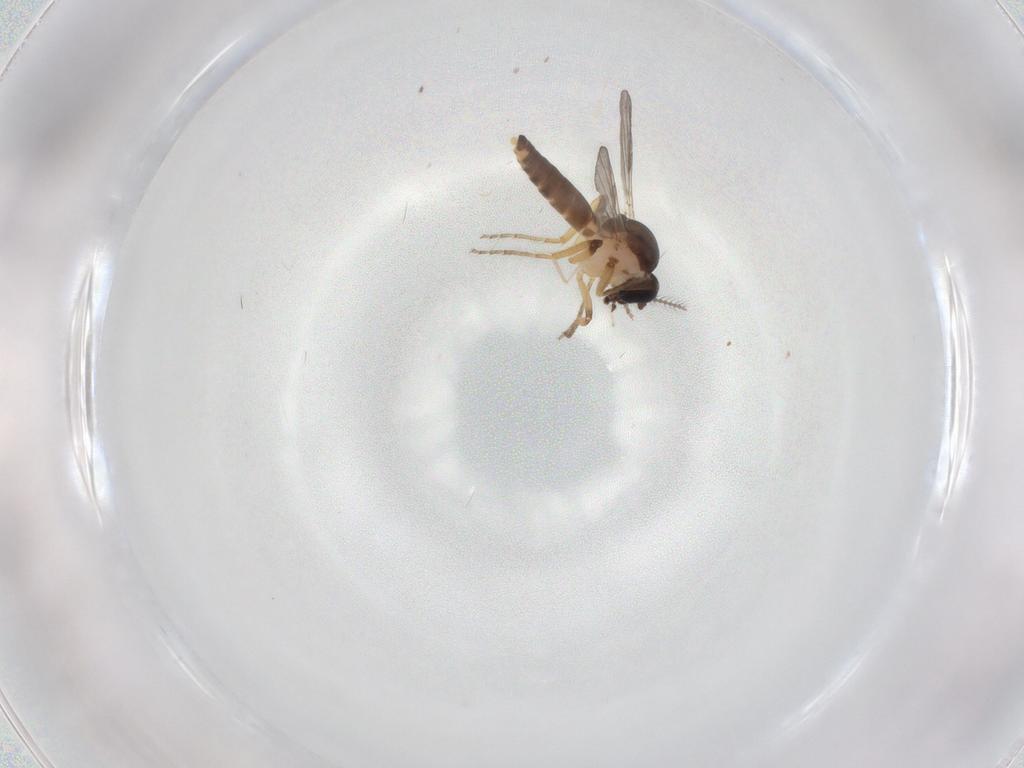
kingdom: Animalia
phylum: Arthropoda
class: Insecta
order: Diptera
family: Ceratopogonidae
